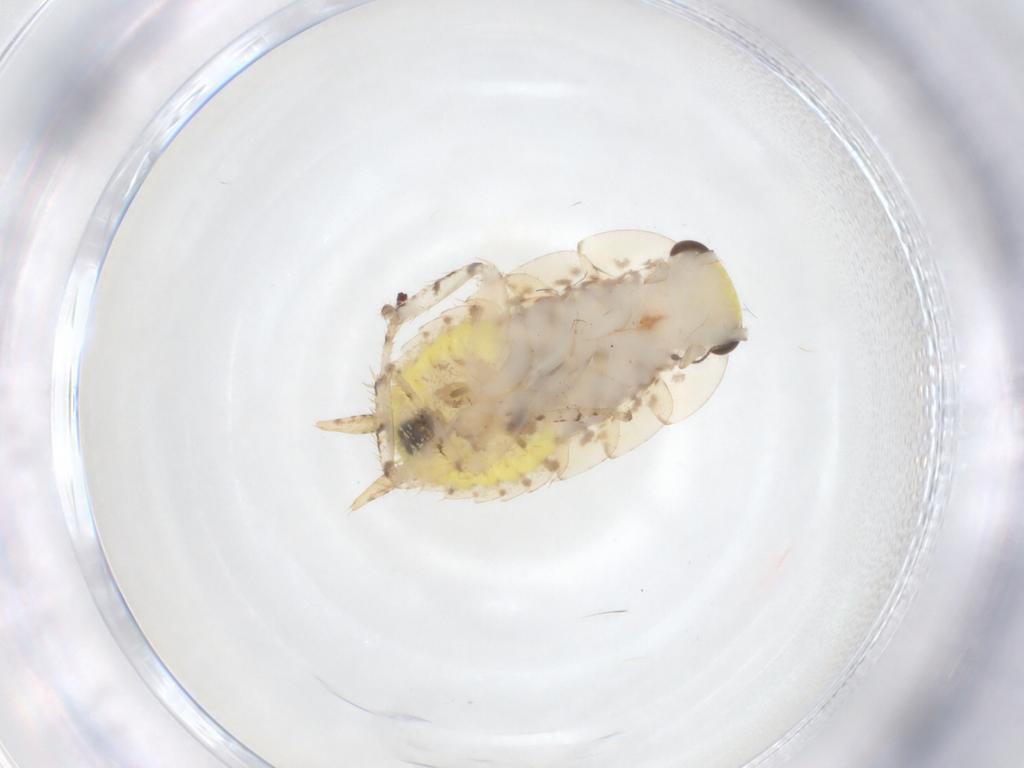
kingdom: Animalia
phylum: Arthropoda
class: Insecta
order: Blattodea
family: Ectobiidae
